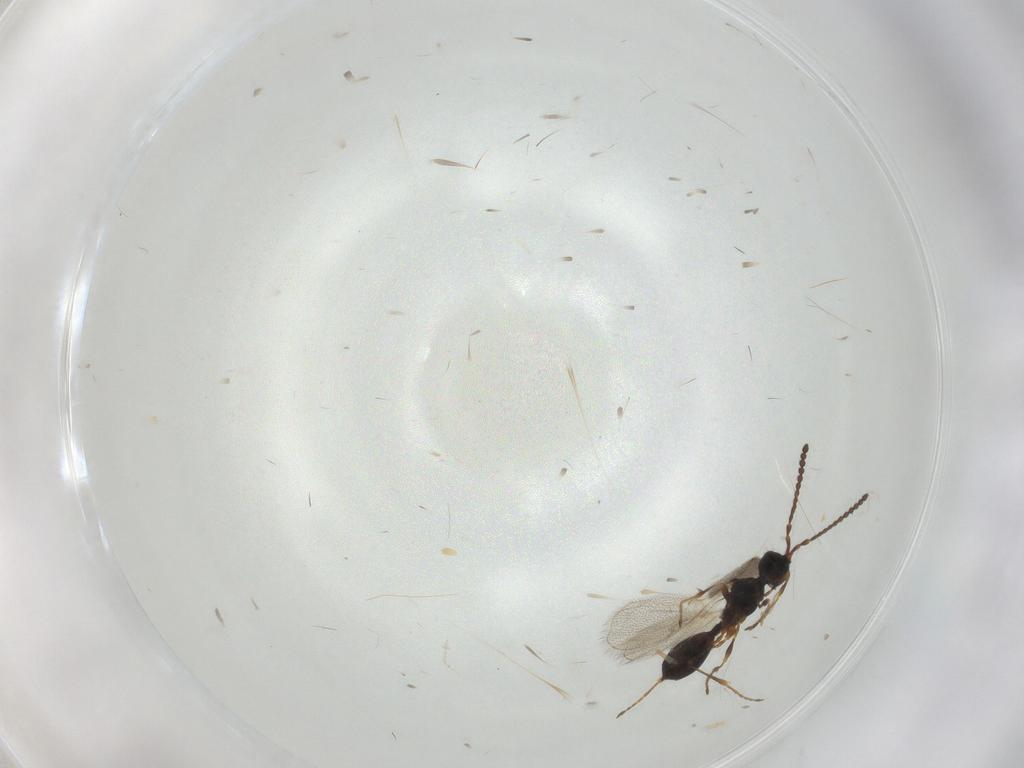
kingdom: Animalia
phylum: Arthropoda
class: Insecta
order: Hymenoptera
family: Diapriidae
